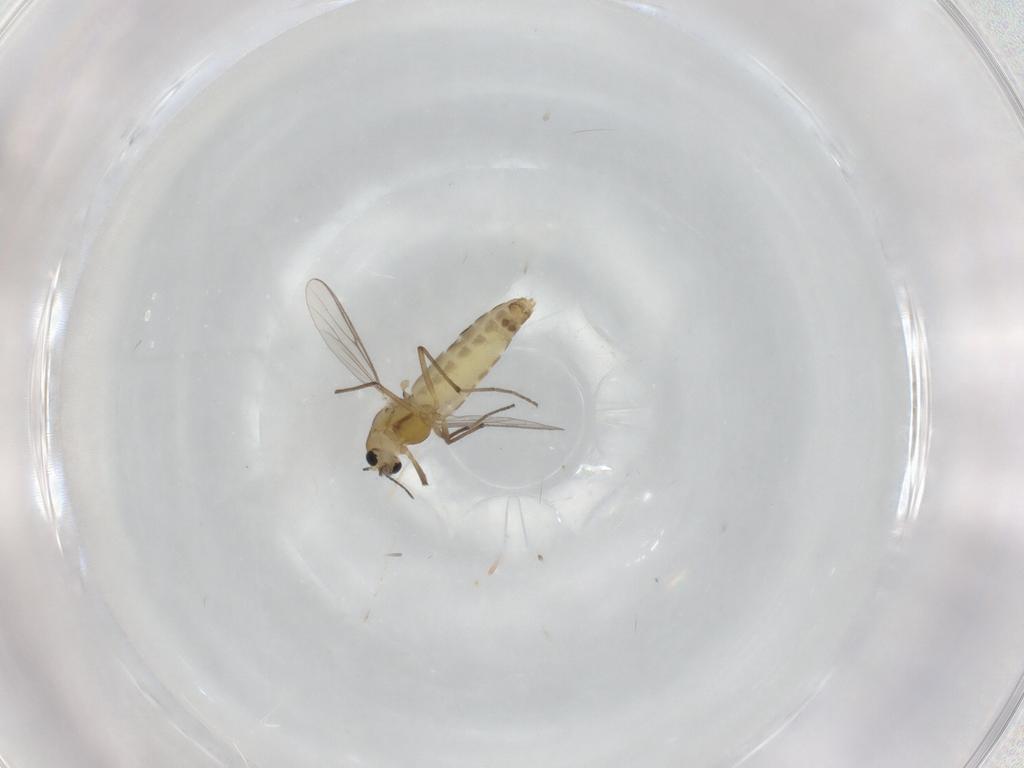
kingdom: Animalia
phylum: Arthropoda
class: Insecta
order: Diptera
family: Chironomidae
